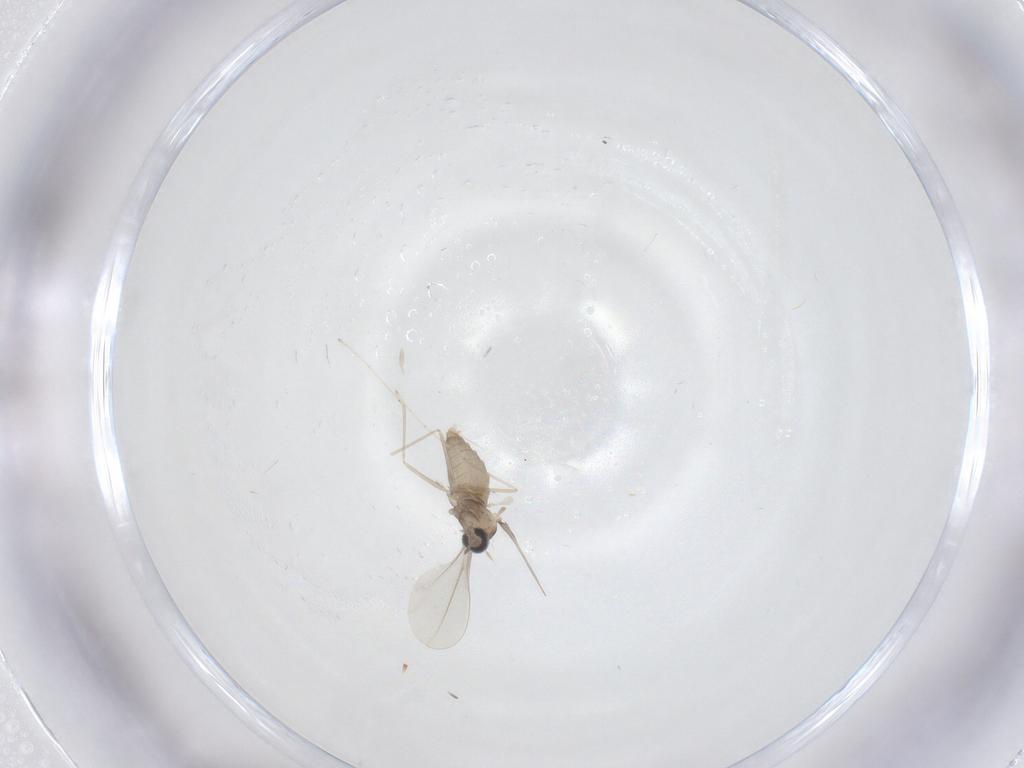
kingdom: Animalia
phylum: Arthropoda
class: Insecta
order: Diptera
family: Cecidomyiidae
